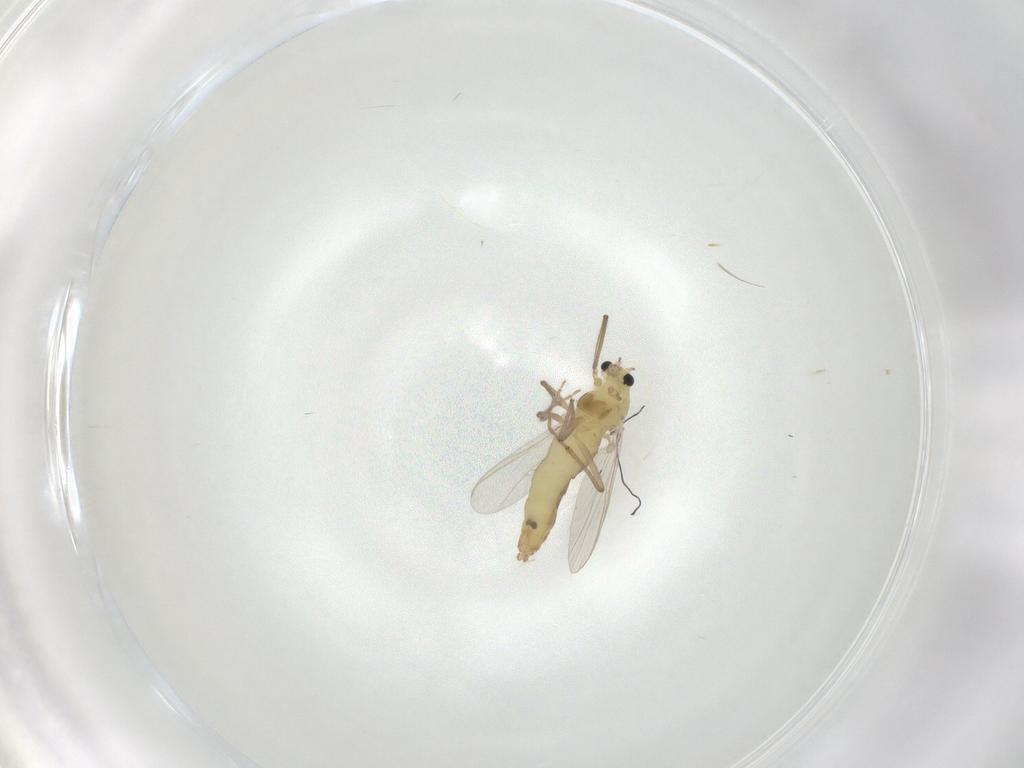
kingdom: Animalia
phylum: Arthropoda
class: Insecta
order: Diptera
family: Chironomidae
